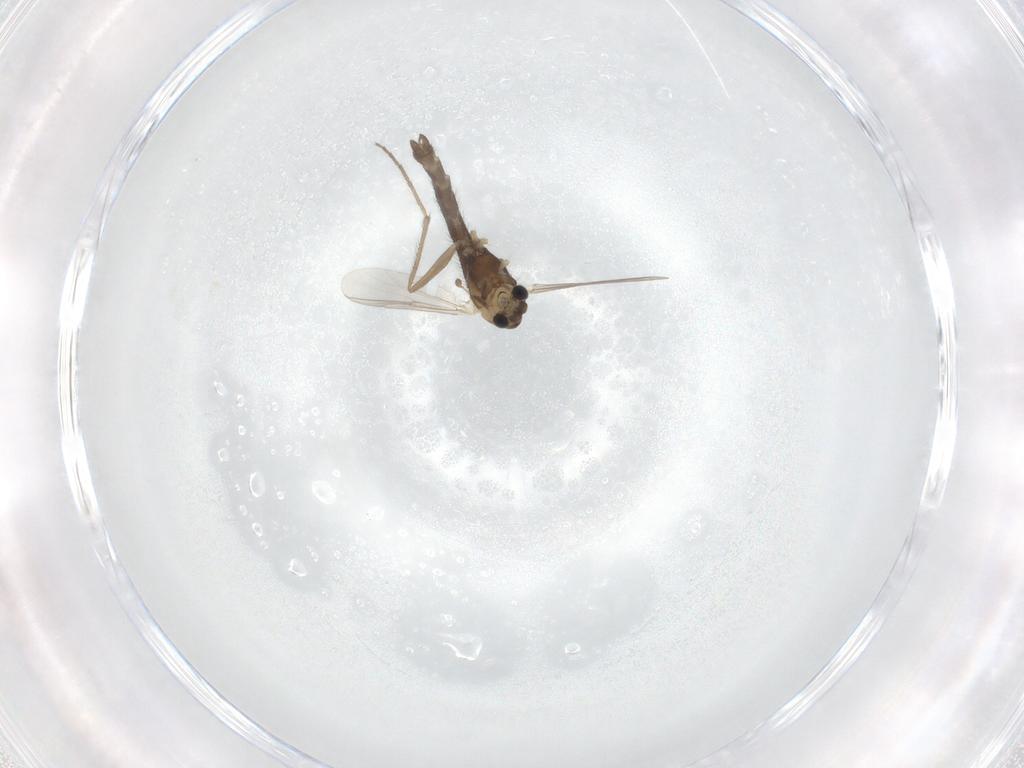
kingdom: Animalia
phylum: Arthropoda
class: Insecta
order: Diptera
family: Chironomidae
